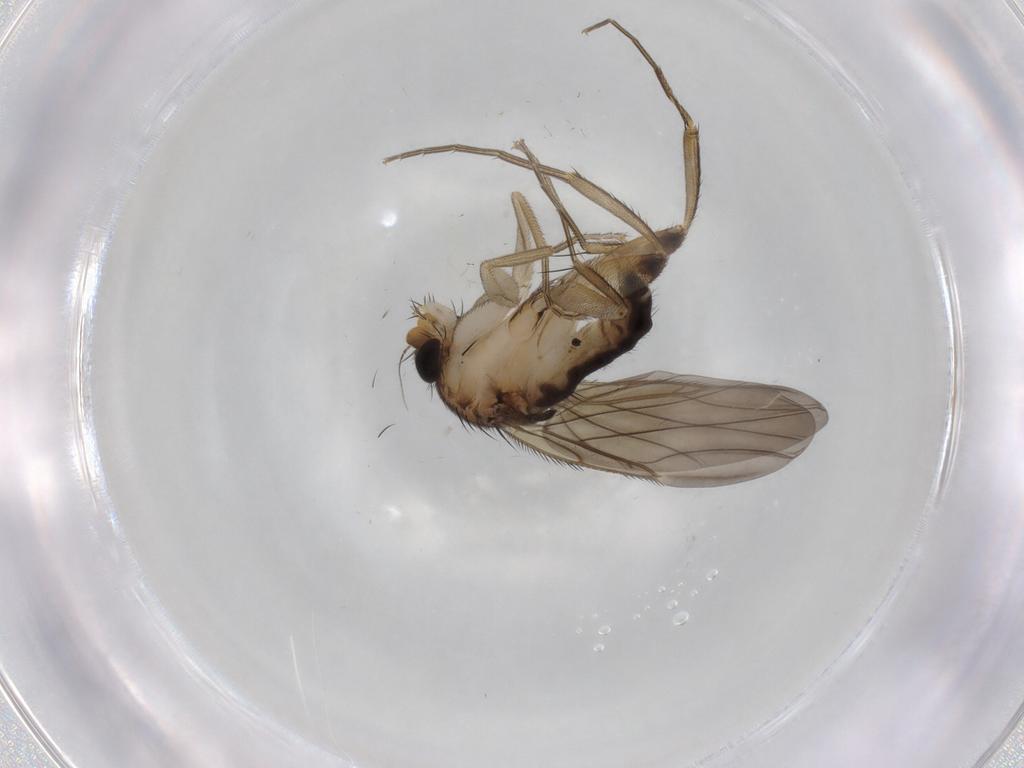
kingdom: Animalia
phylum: Arthropoda
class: Insecta
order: Diptera
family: Phoridae
